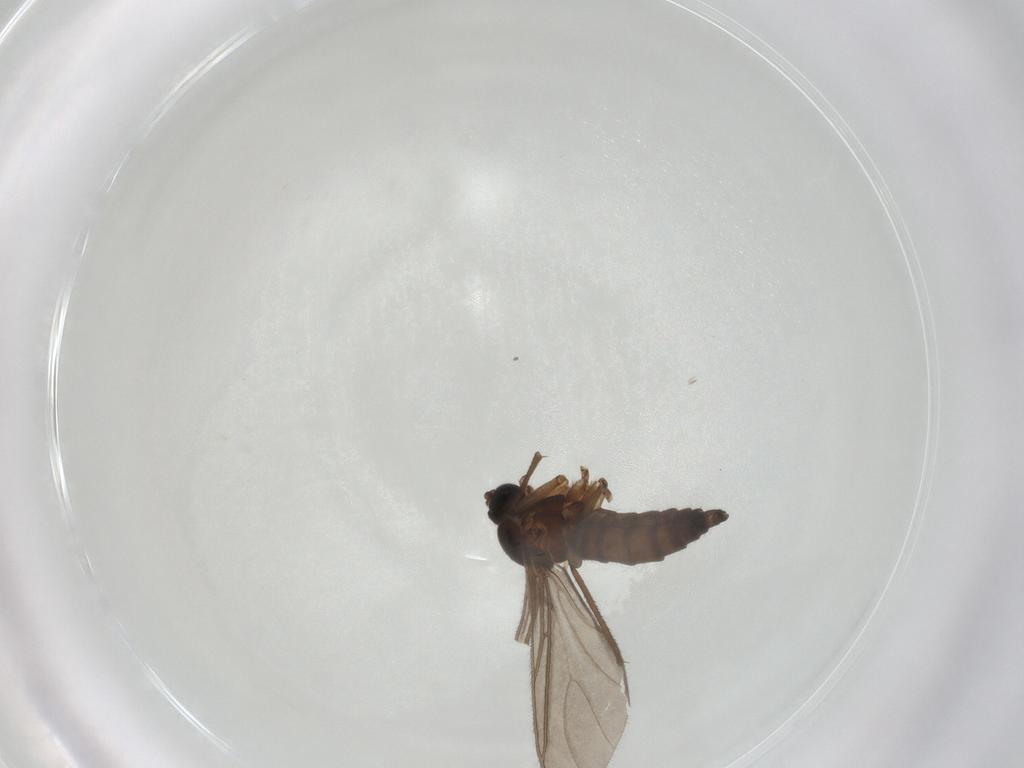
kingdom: Animalia
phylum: Arthropoda
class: Insecta
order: Diptera
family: Sciaridae
